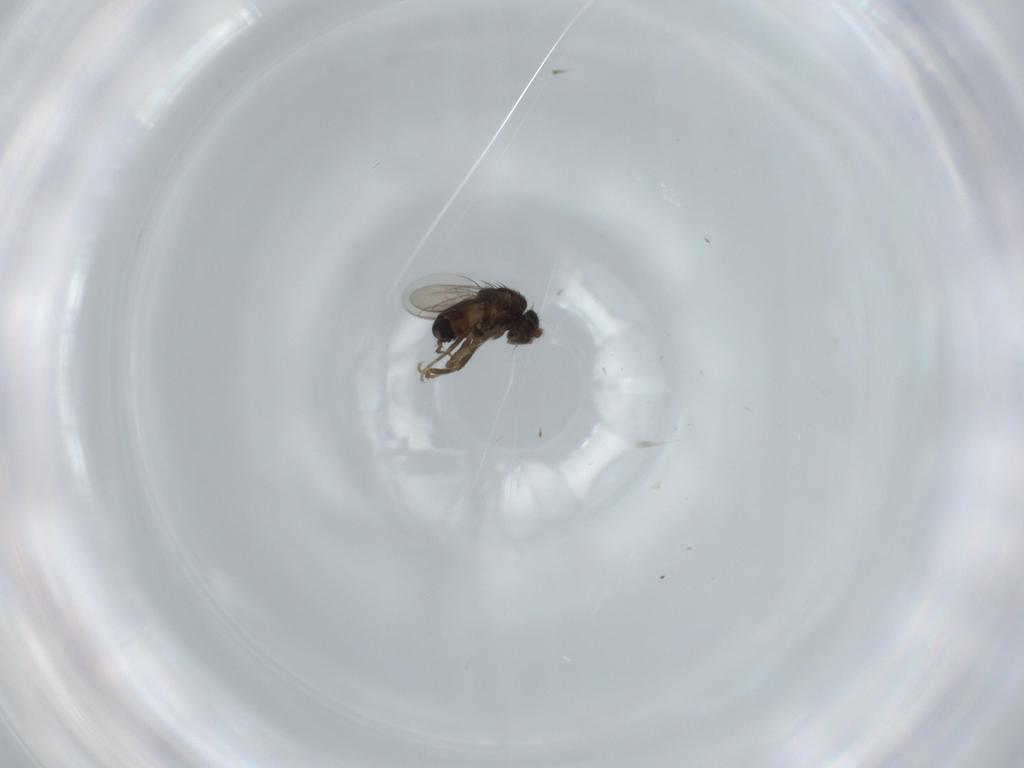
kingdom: Animalia
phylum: Arthropoda
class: Insecta
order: Diptera
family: Sphaeroceridae
